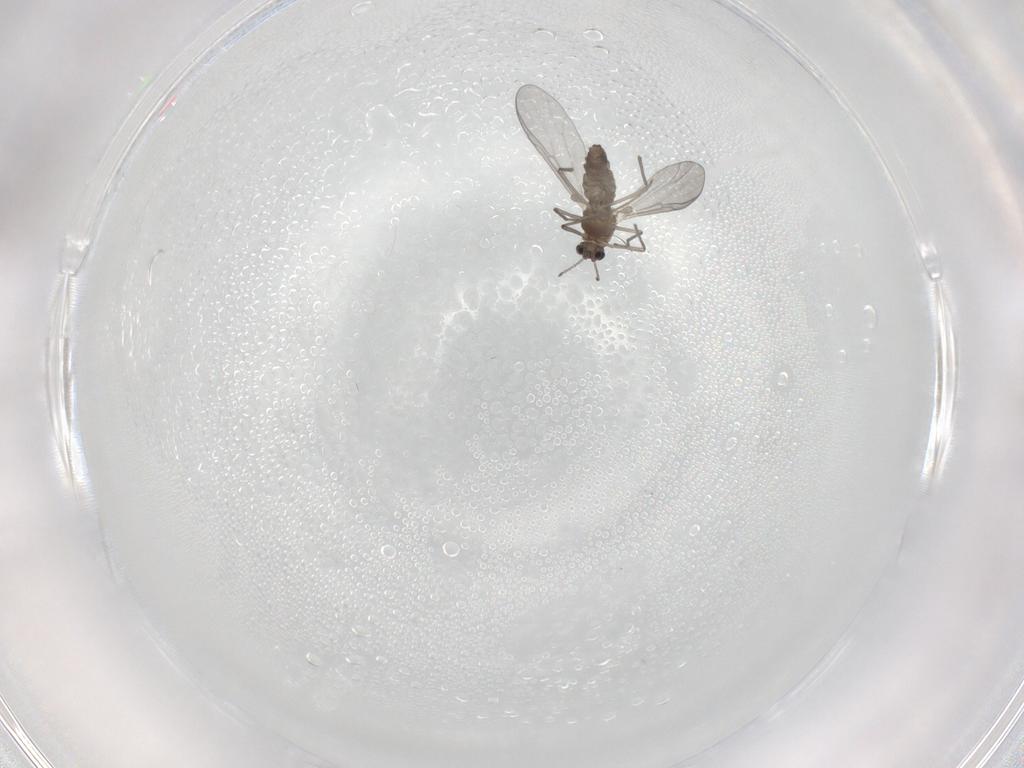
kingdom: Animalia
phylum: Arthropoda
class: Insecta
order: Diptera
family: Chironomidae
